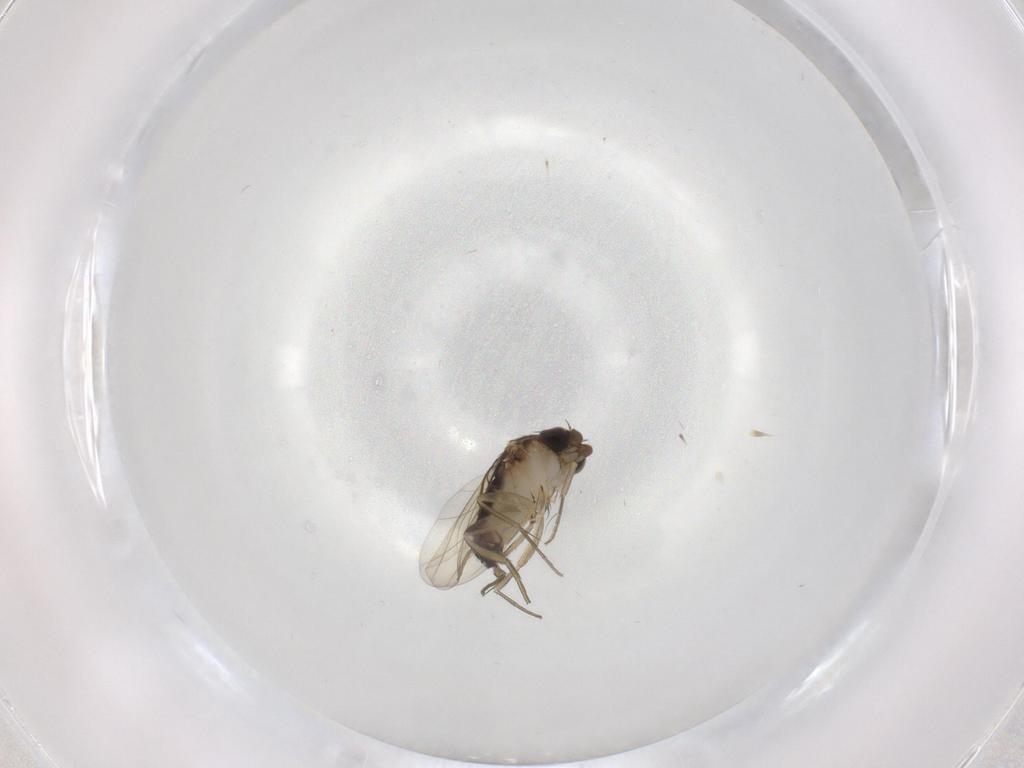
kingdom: Animalia
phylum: Arthropoda
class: Insecta
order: Diptera
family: Phoridae
